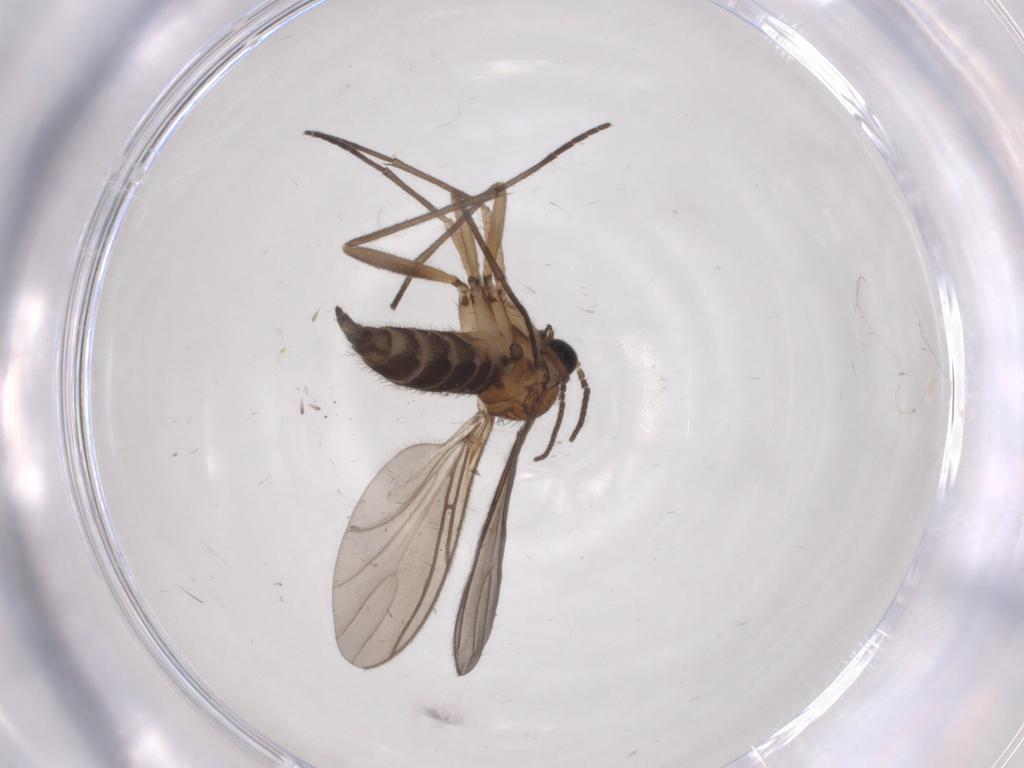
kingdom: Animalia
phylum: Arthropoda
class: Insecta
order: Diptera
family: Sciaridae
